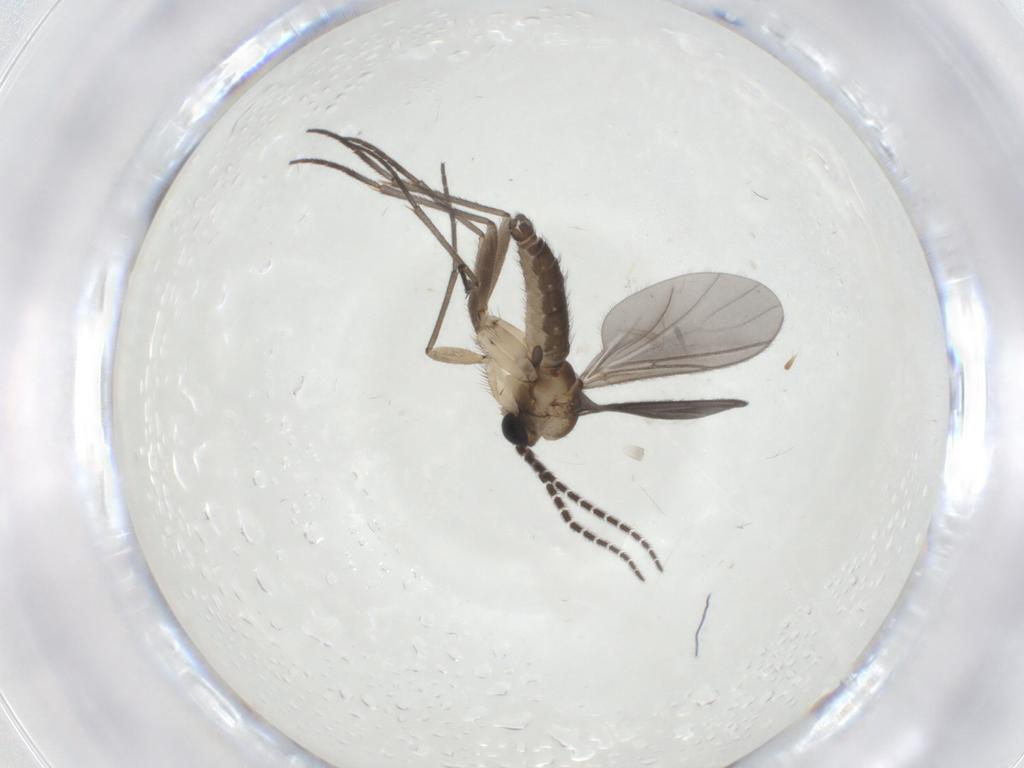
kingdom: Animalia
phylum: Arthropoda
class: Insecta
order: Diptera
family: Sciaridae
